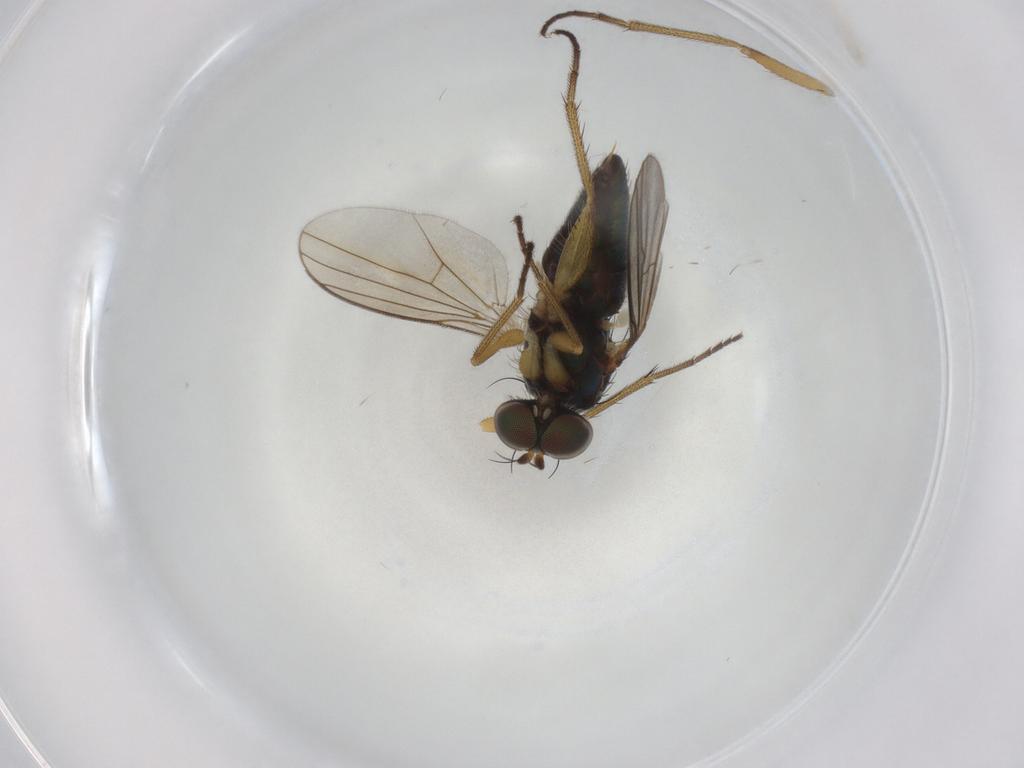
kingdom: Animalia
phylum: Arthropoda
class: Insecta
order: Diptera
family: Dolichopodidae
